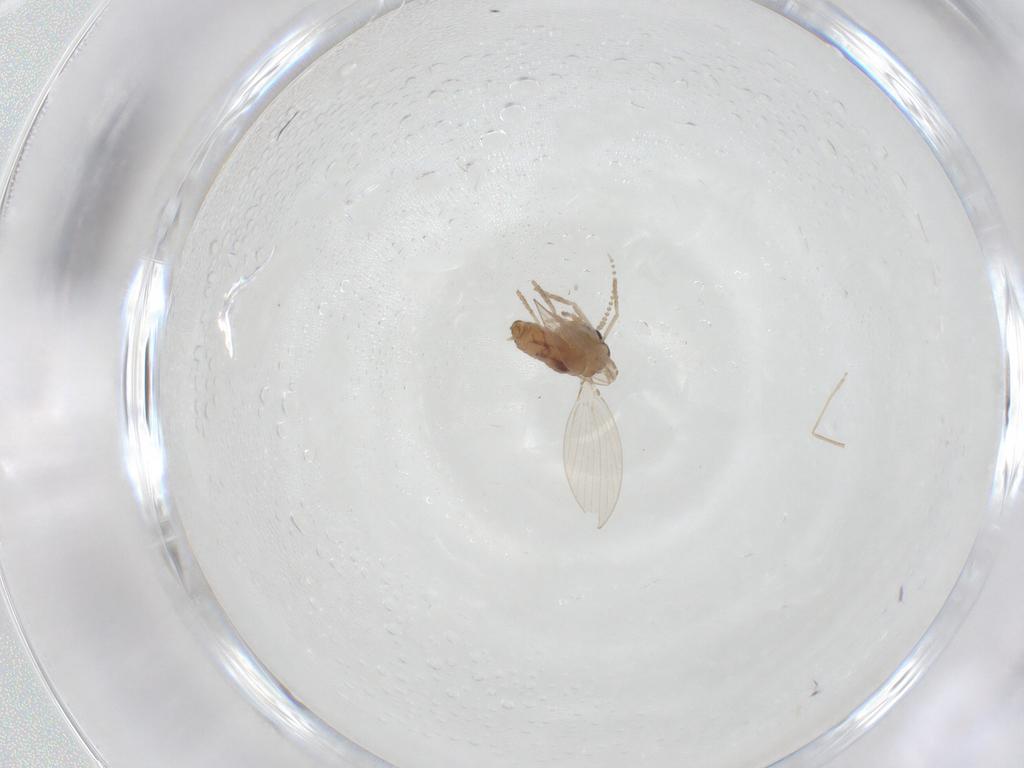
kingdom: Animalia
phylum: Arthropoda
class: Insecta
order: Diptera
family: Psychodidae
